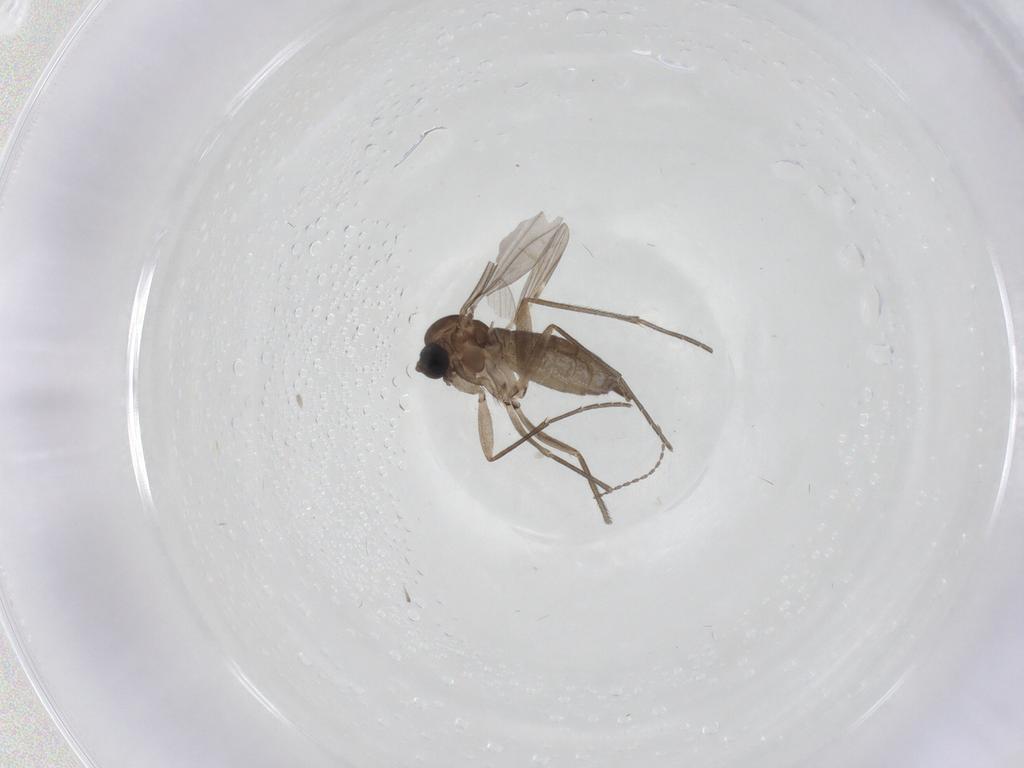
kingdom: Animalia
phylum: Arthropoda
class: Insecta
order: Diptera
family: Sciaridae
